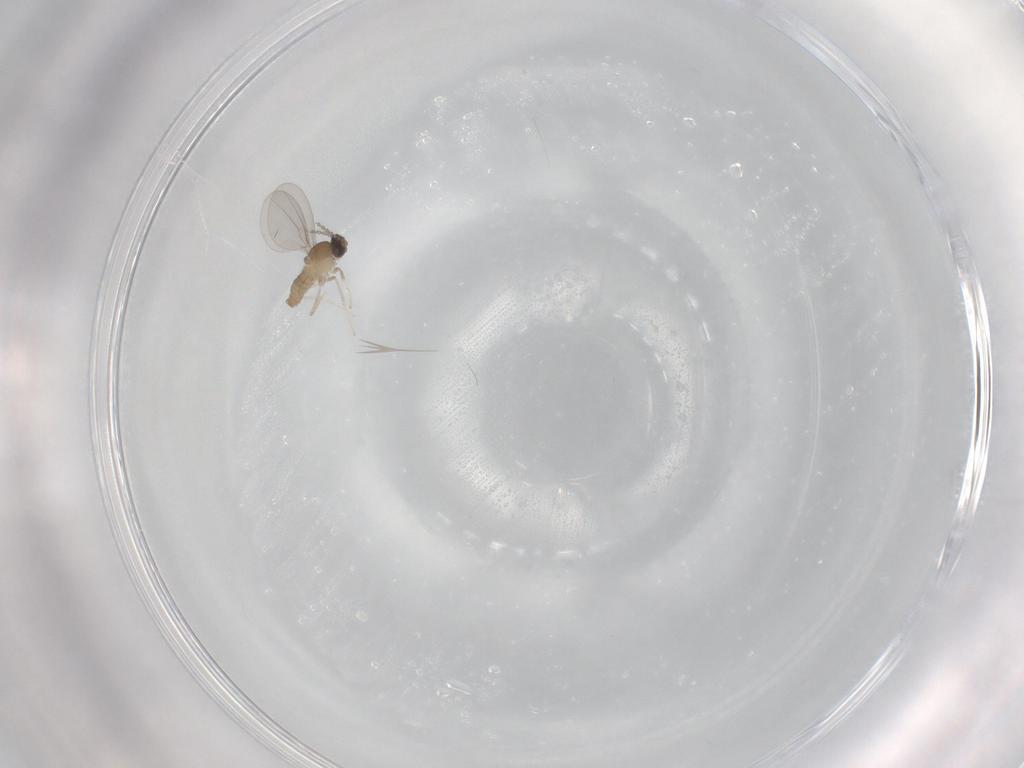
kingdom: Animalia
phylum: Arthropoda
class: Insecta
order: Diptera
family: Cecidomyiidae
